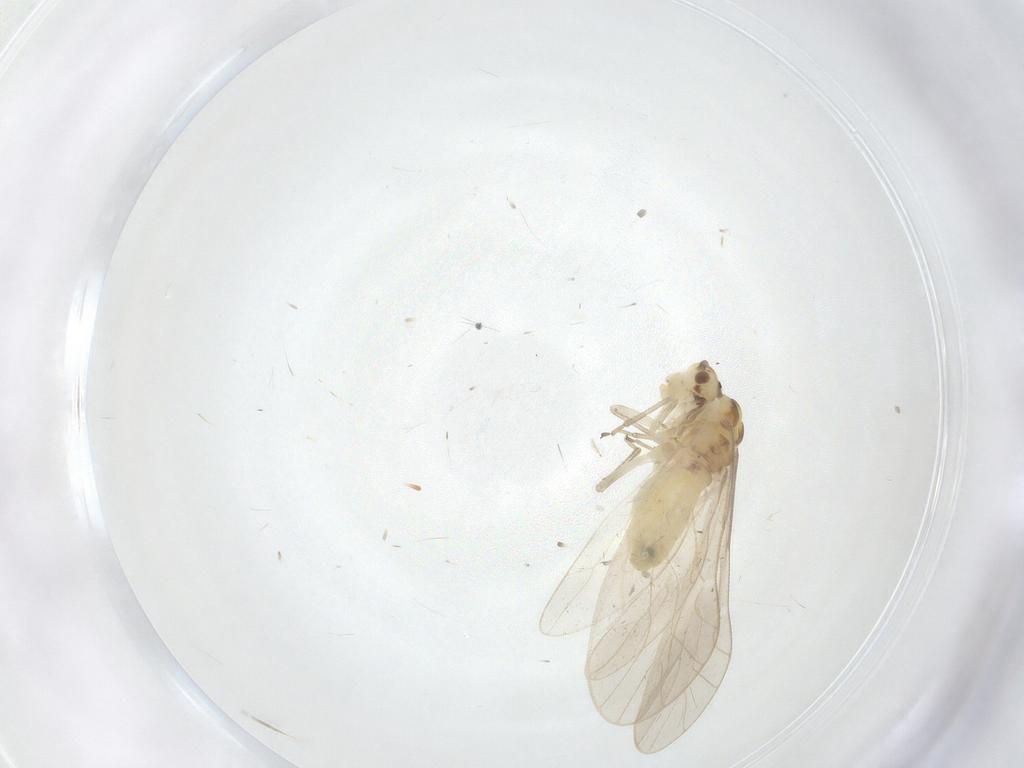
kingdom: Animalia
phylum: Arthropoda
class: Insecta
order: Psocodea
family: Caeciliusidae
